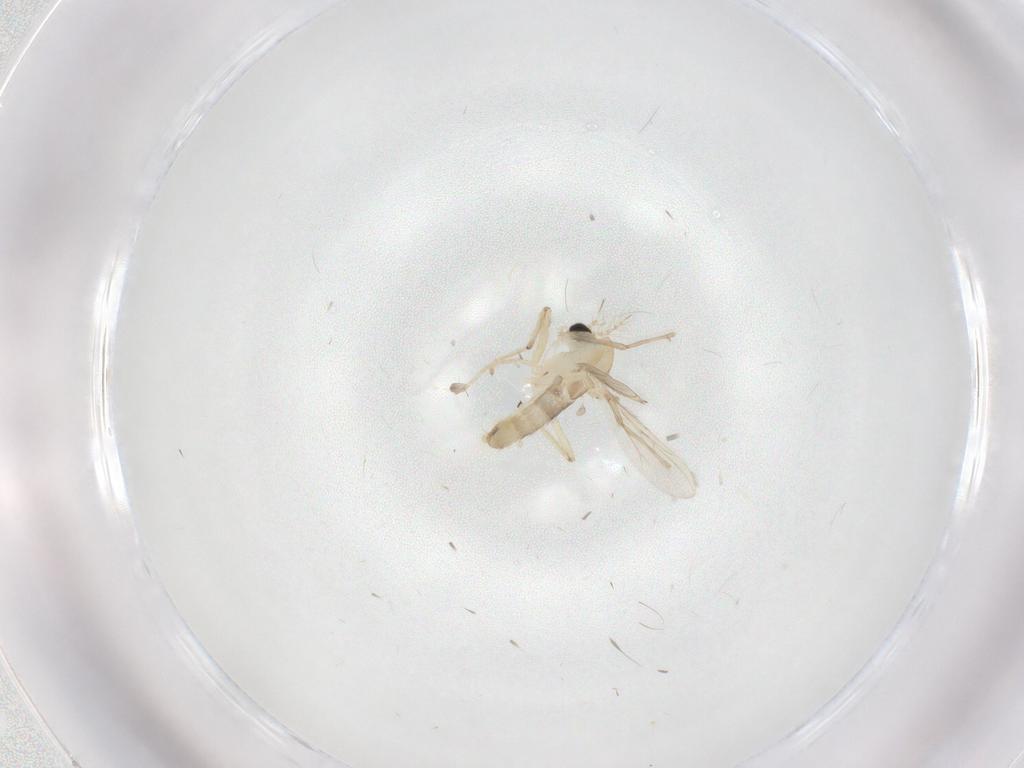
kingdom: Animalia
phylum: Arthropoda
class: Insecta
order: Diptera
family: Chironomidae
